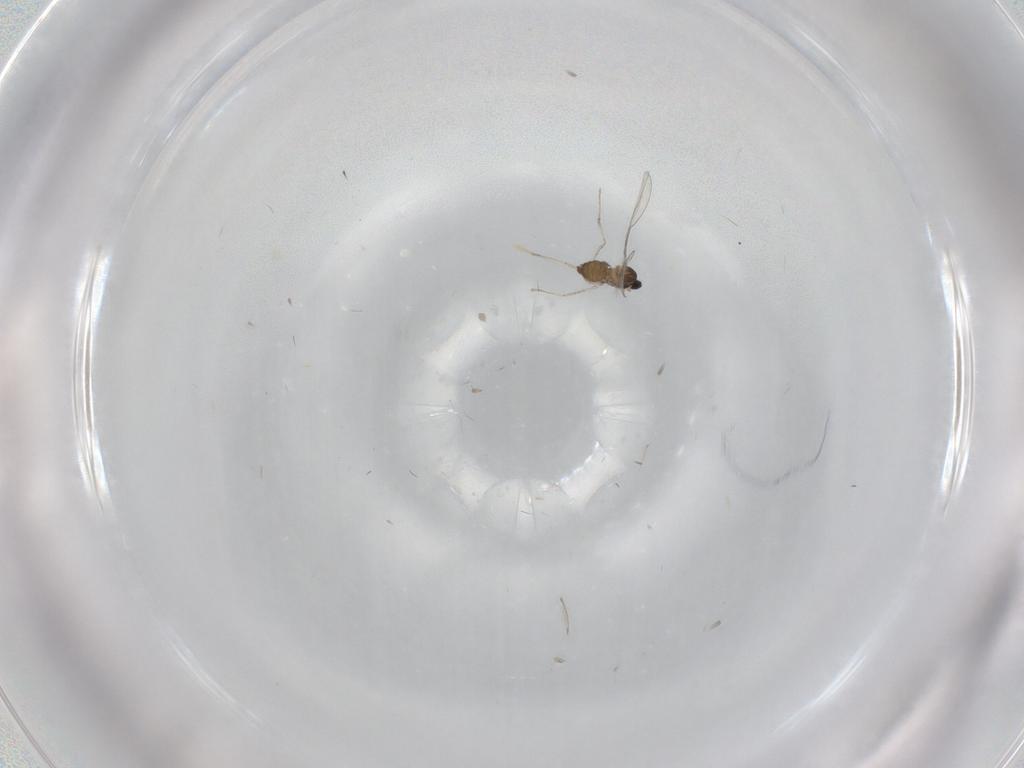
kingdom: Animalia
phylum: Arthropoda
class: Insecta
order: Diptera
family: Cecidomyiidae
